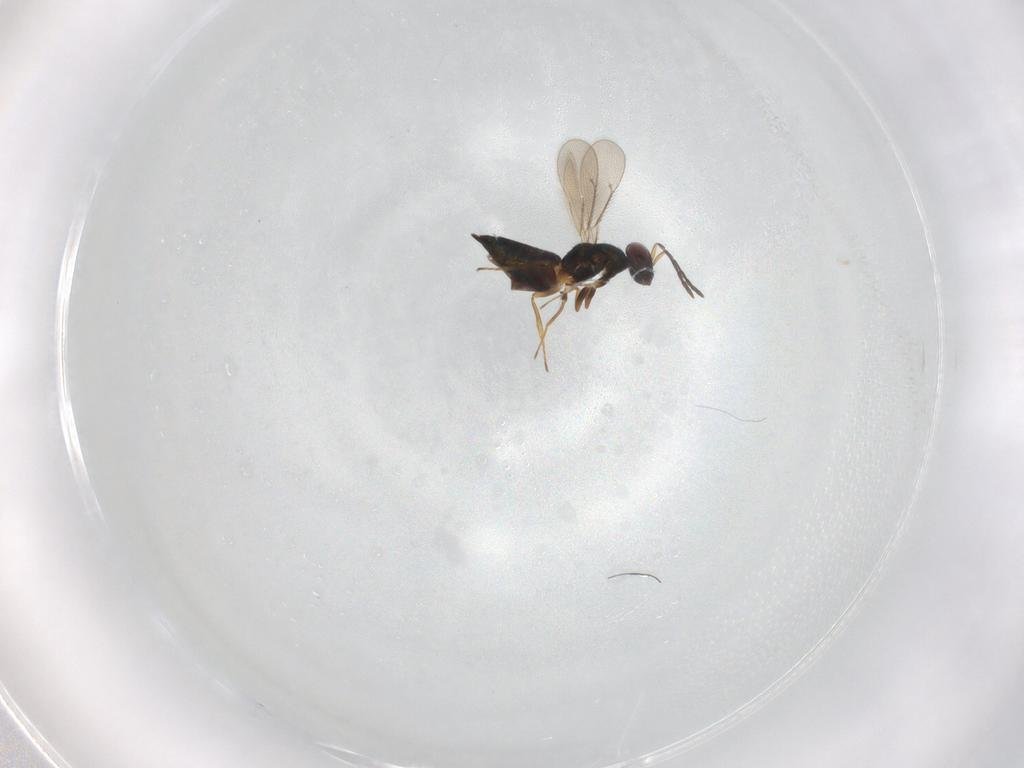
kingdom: Animalia
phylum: Arthropoda
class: Insecta
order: Hymenoptera
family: Eulophidae
